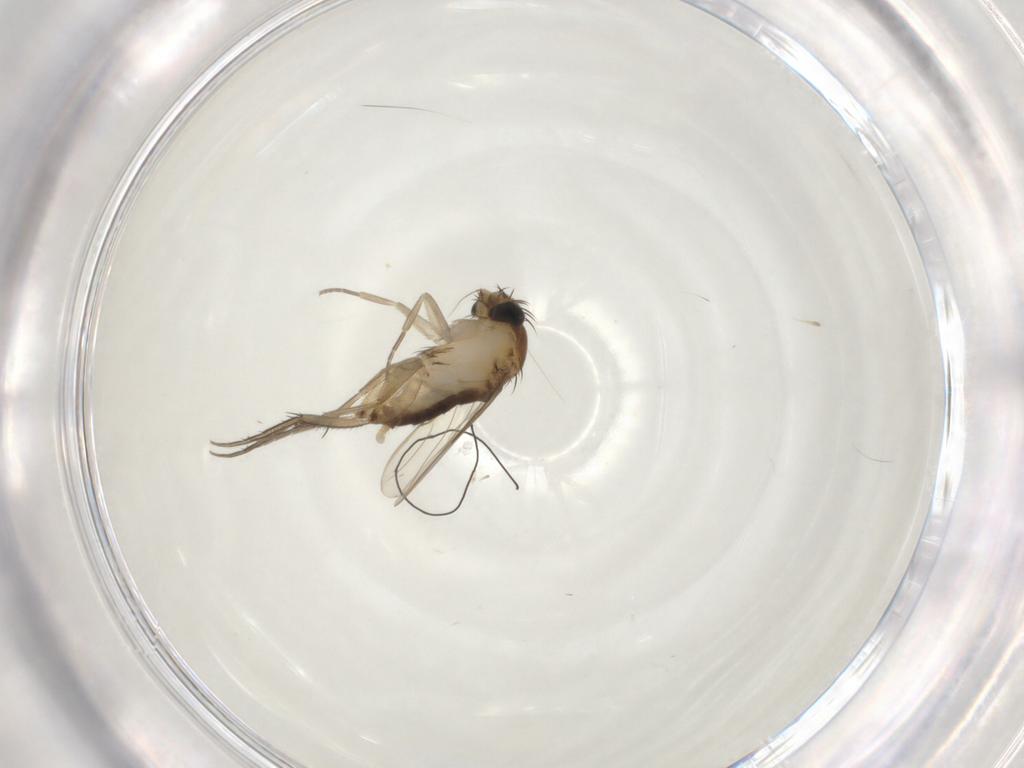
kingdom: Animalia
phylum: Arthropoda
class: Insecta
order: Diptera
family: Phoridae
